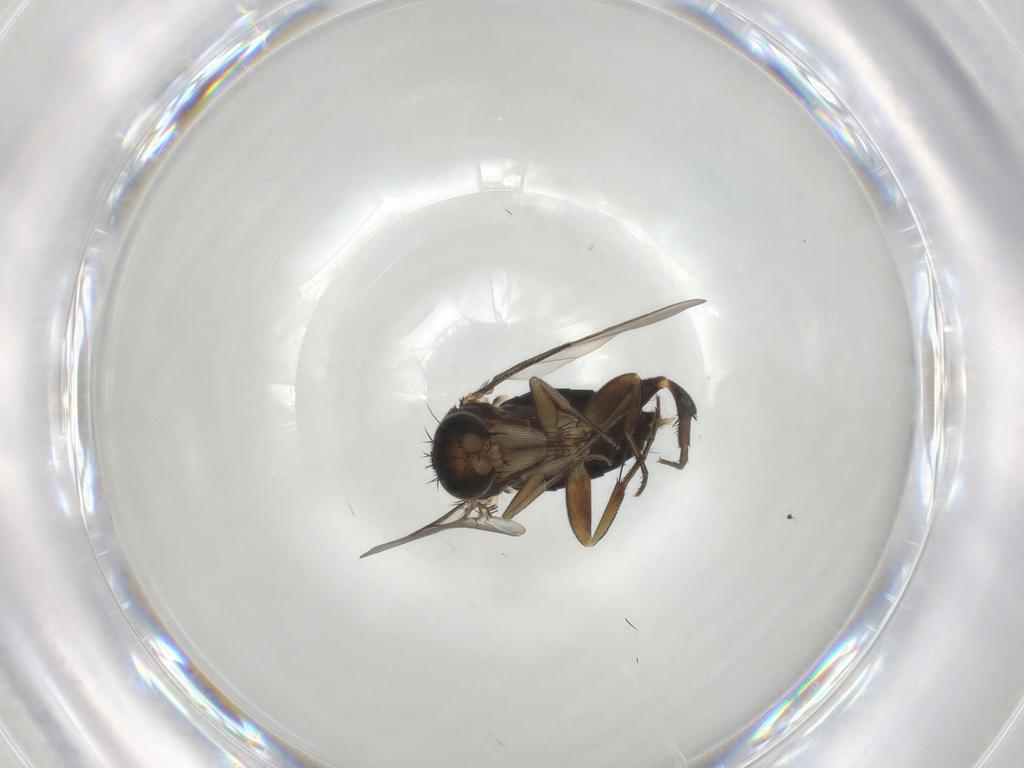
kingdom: Animalia
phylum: Arthropoda
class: Insecta
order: Diptera
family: Phoridae
